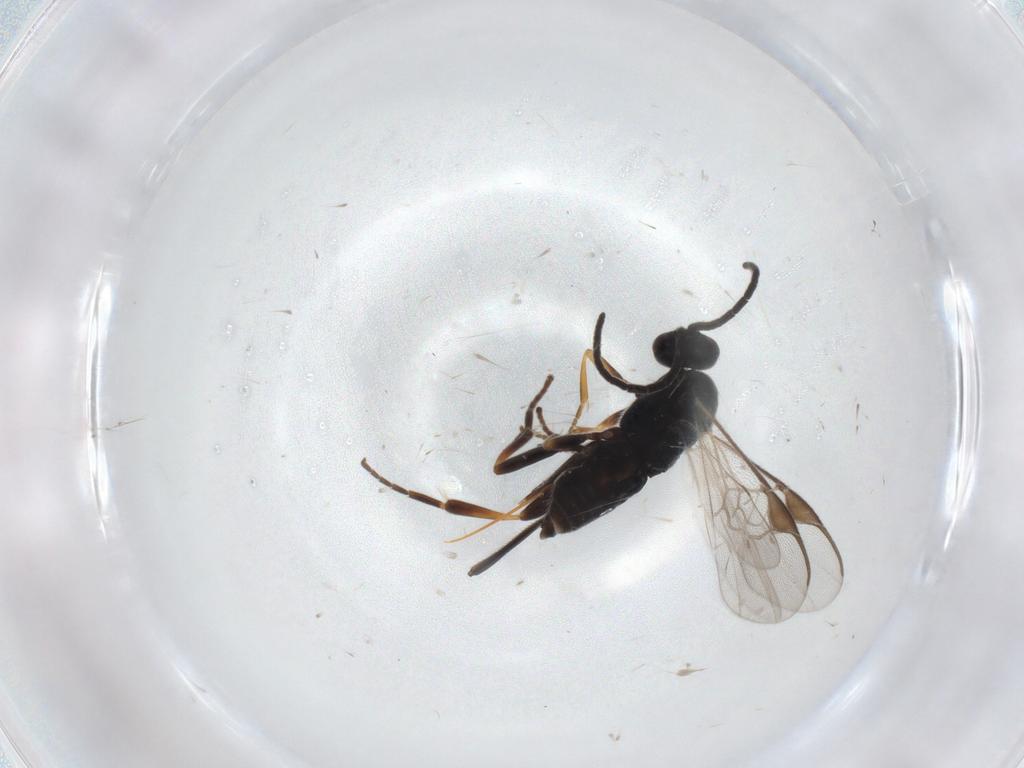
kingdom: Animalia
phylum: Arthropoda
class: Insecta
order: Hymenoptera
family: Braconidae
